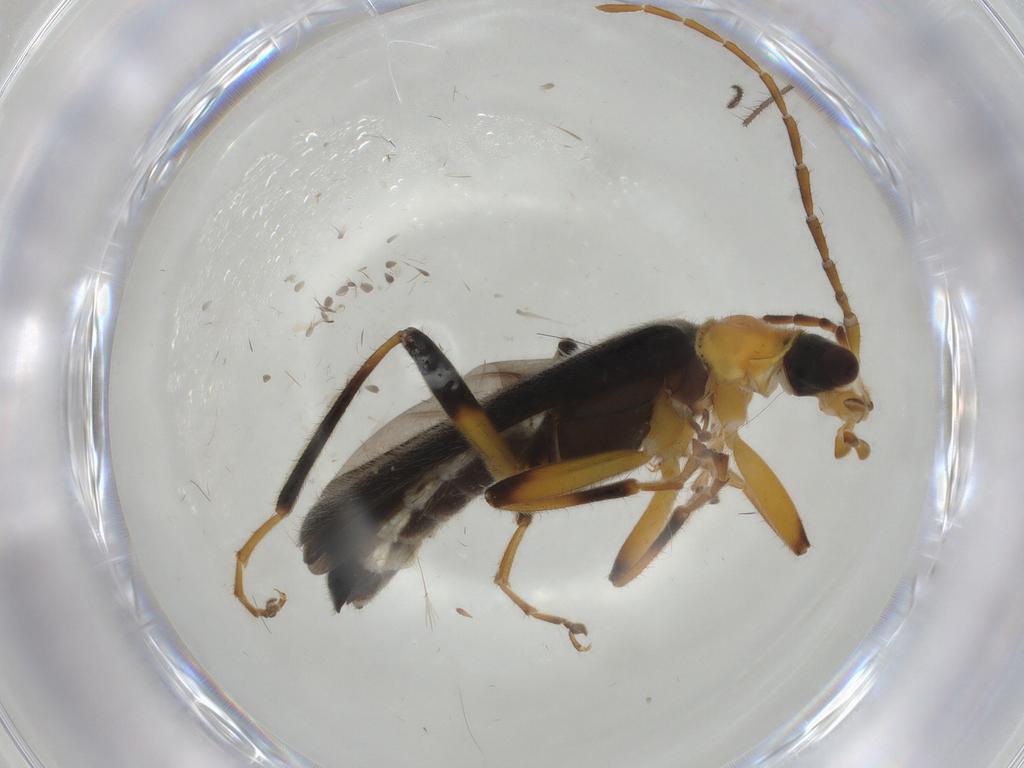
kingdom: Animalia
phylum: Arthropoda
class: Insecta
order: Coleoptera
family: Cantharidae
